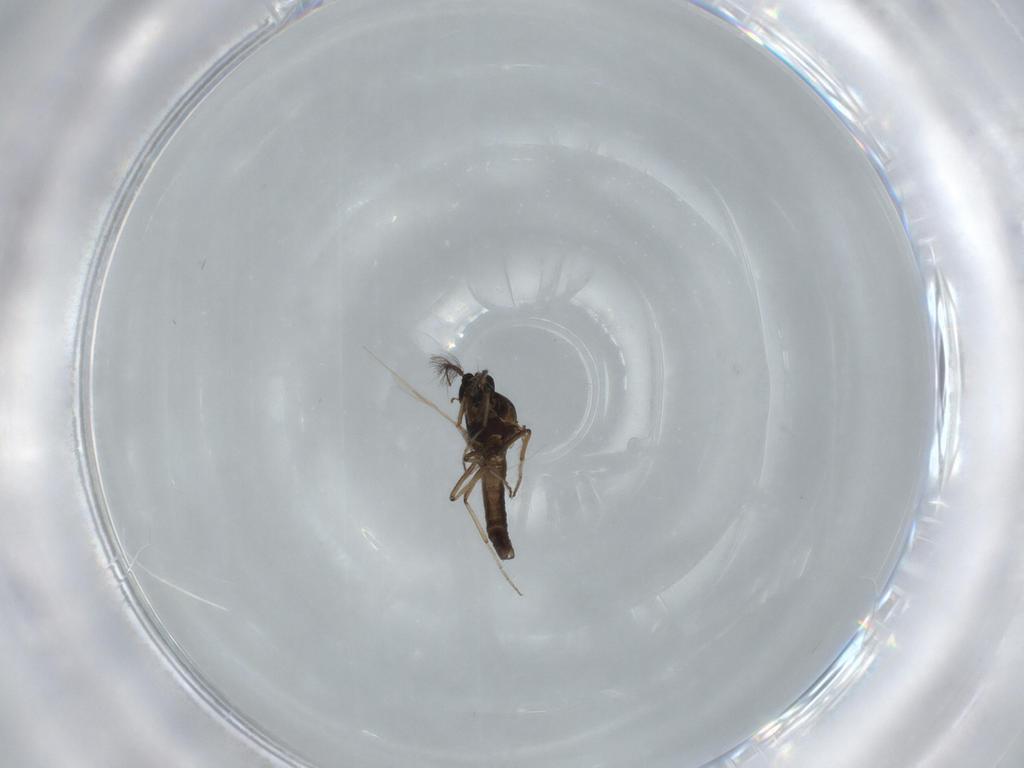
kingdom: Animalia
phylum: Arthropoda
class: Insecta
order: Diptera
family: Ceratopogonidae
